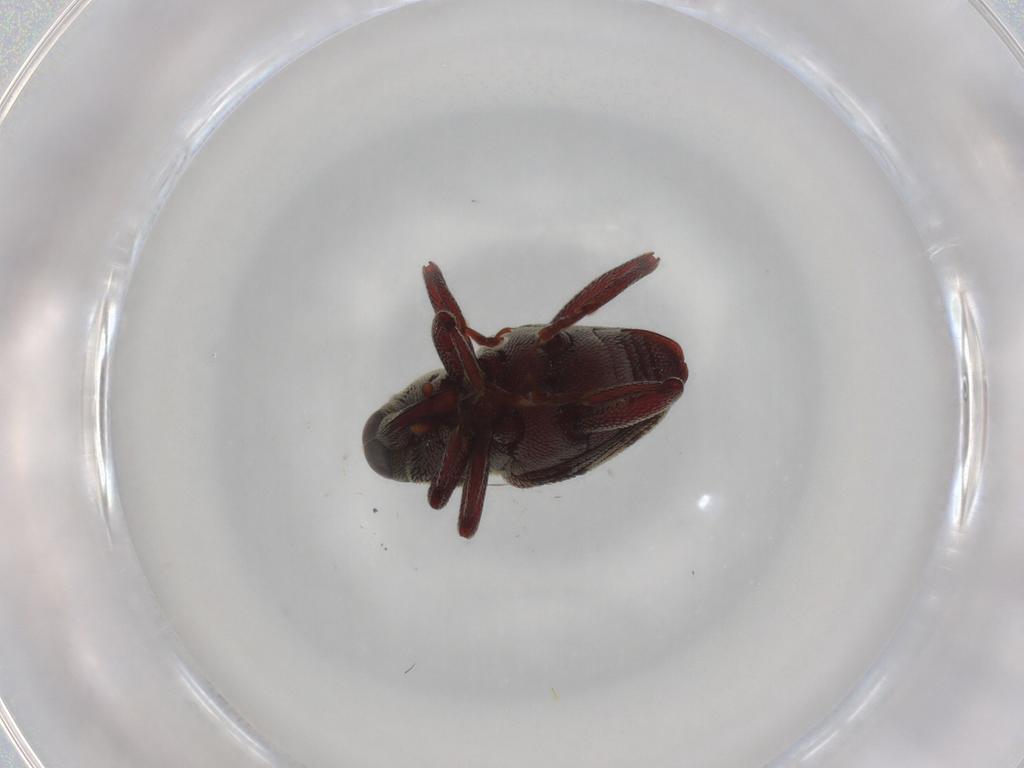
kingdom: Animalia
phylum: Arthropoda
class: Insecta
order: Coleoptera
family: Curculionidae
